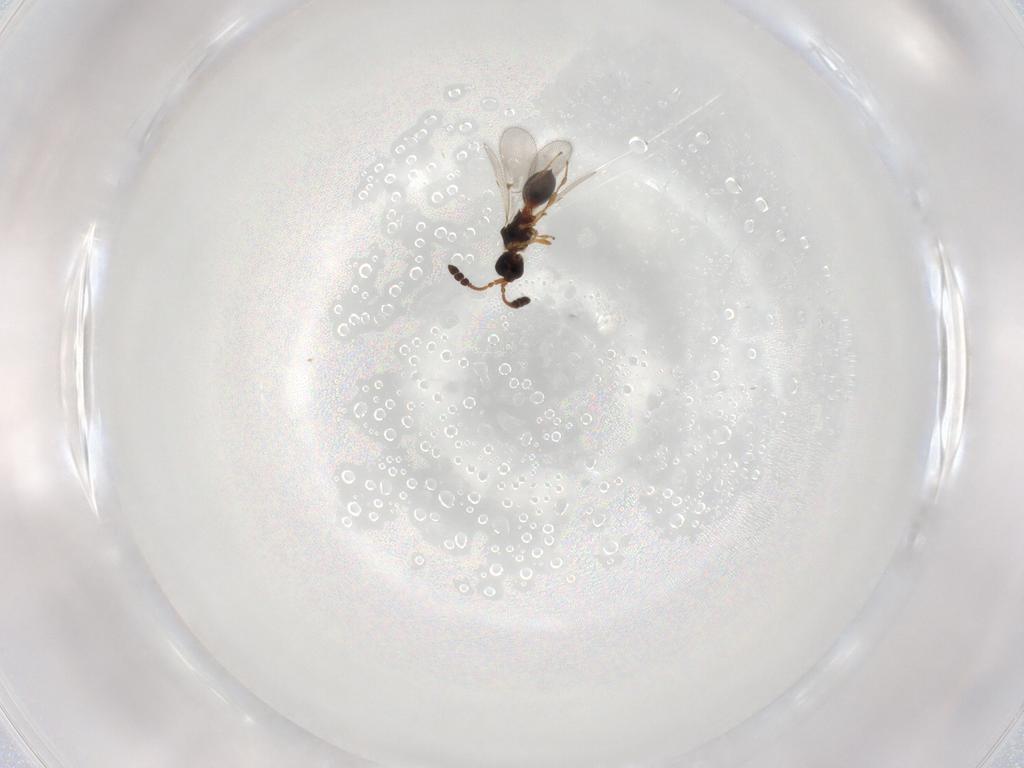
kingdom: Animalia
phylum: Arthropoda
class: Insecta
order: Hymenoptera
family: Diapriidae
